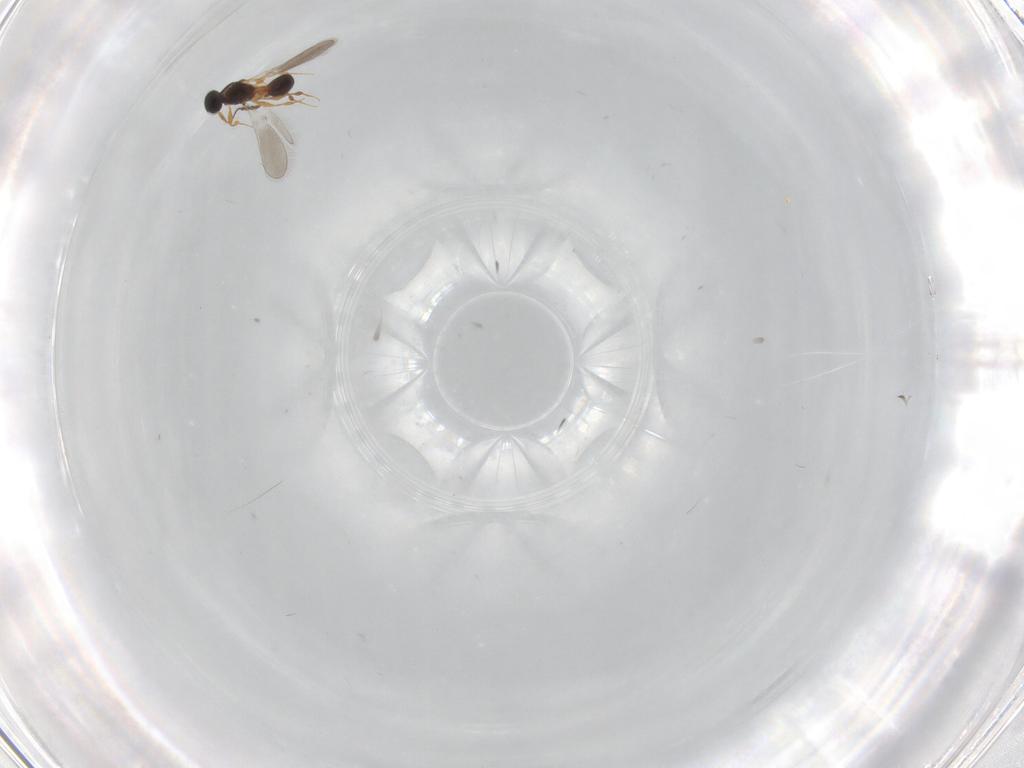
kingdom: Animalia
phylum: Arthropoda
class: Insecta
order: Hymenoptera
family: Platygastridae
